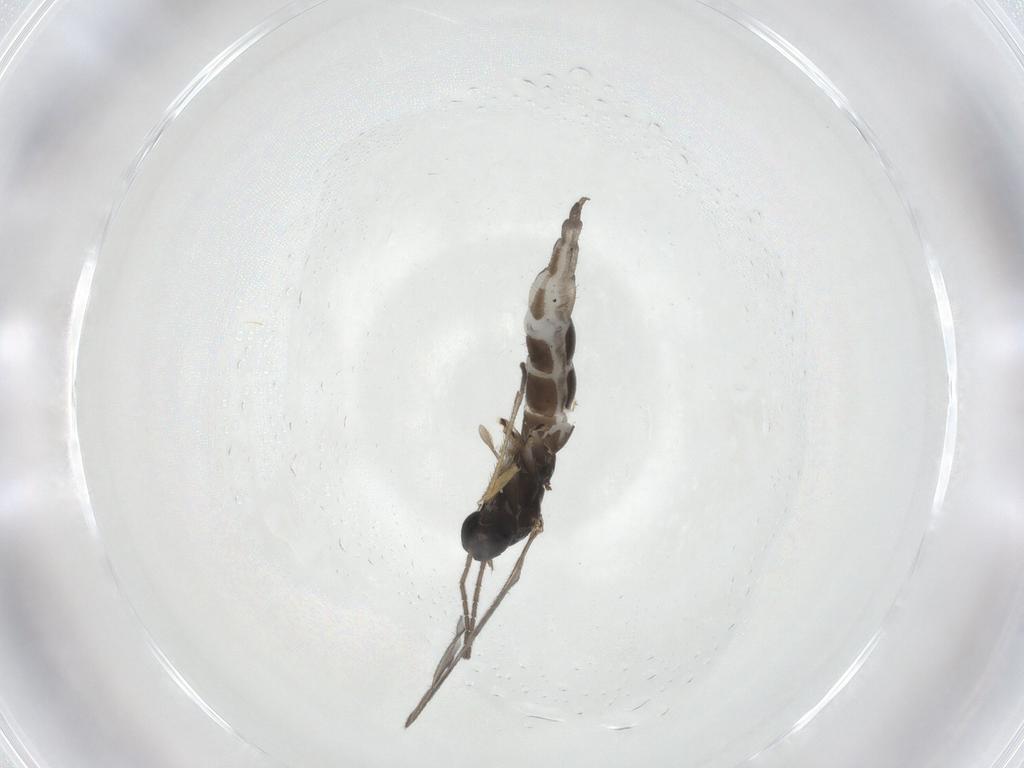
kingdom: Animalia
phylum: Arthropoda
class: Insecta
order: Diptera
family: Sciaridae
